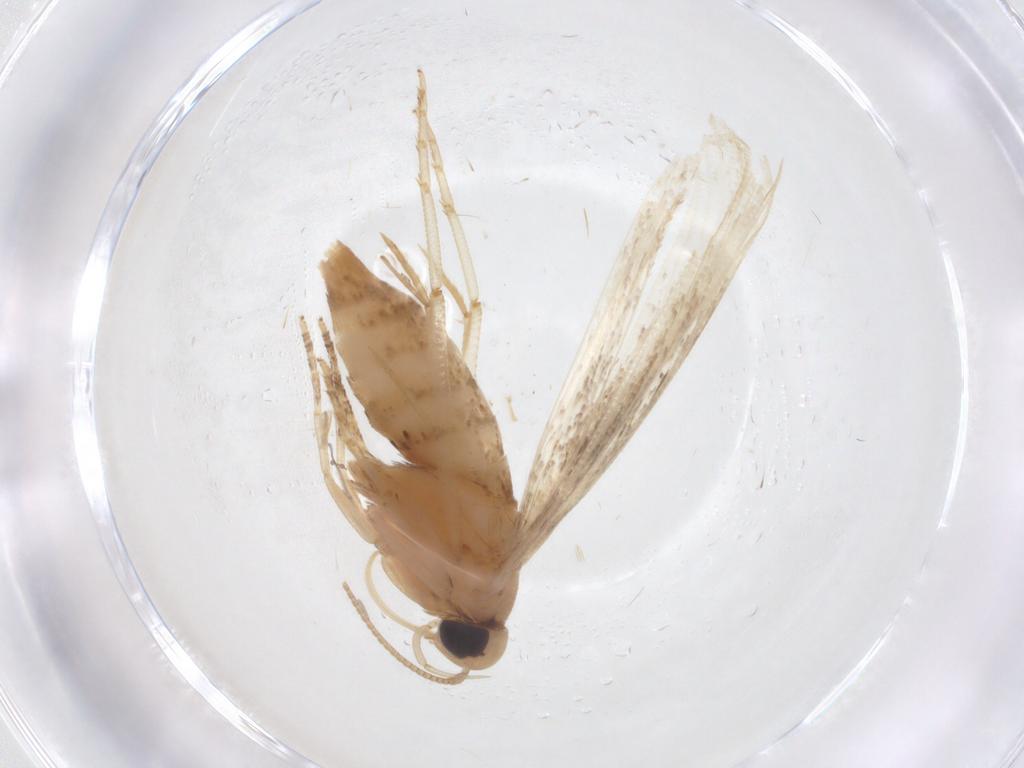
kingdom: Animalia
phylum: Arthropoda
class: Insecta
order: Lepidoptera
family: Cosmopterigidae
